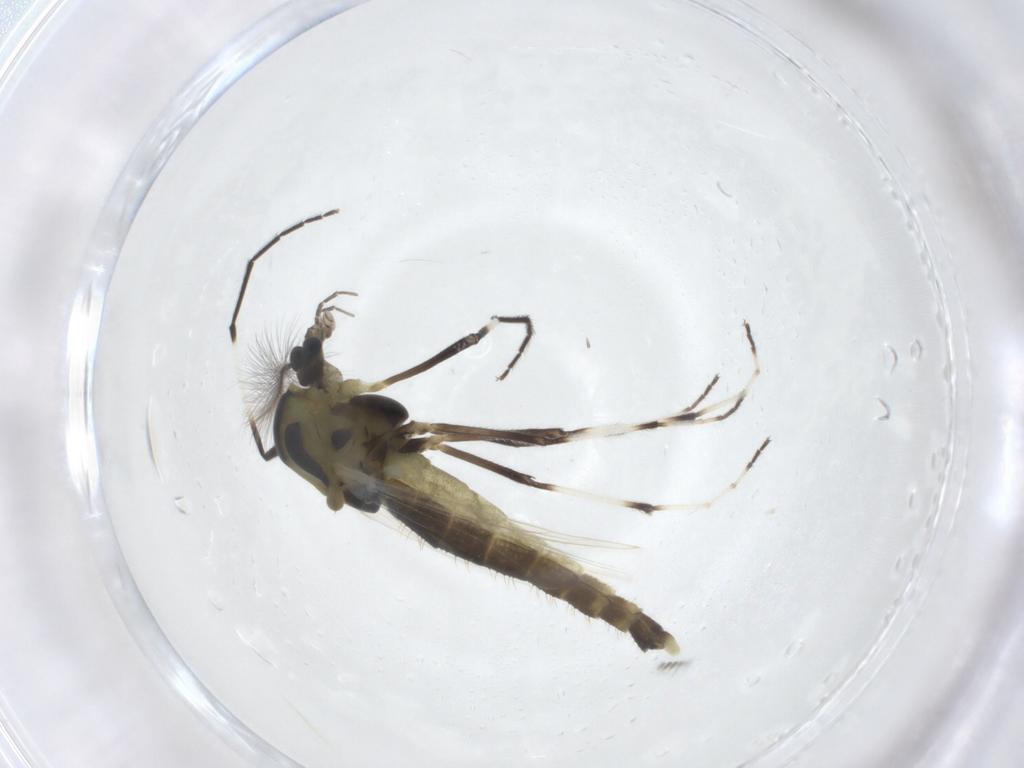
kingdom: Animalia
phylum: Arthropoda
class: Insecta
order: Diptera
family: Chironomidae
